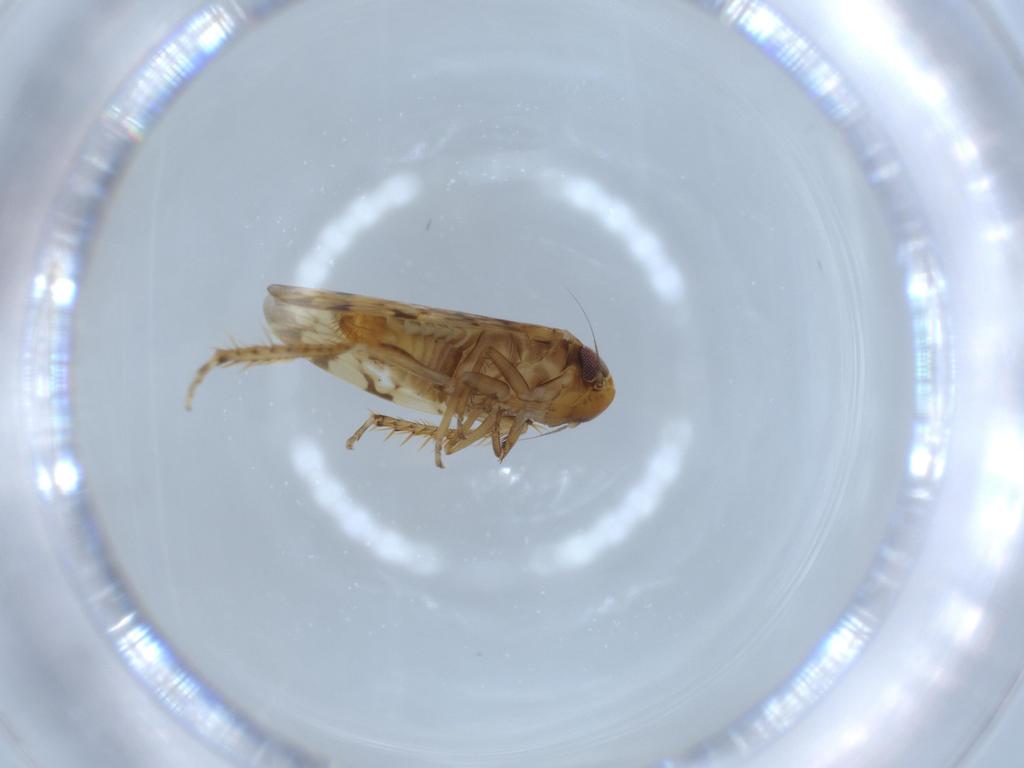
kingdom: Animalia
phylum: Arthropoda
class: Insecta
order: Hemiptera
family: Cicadellidae
